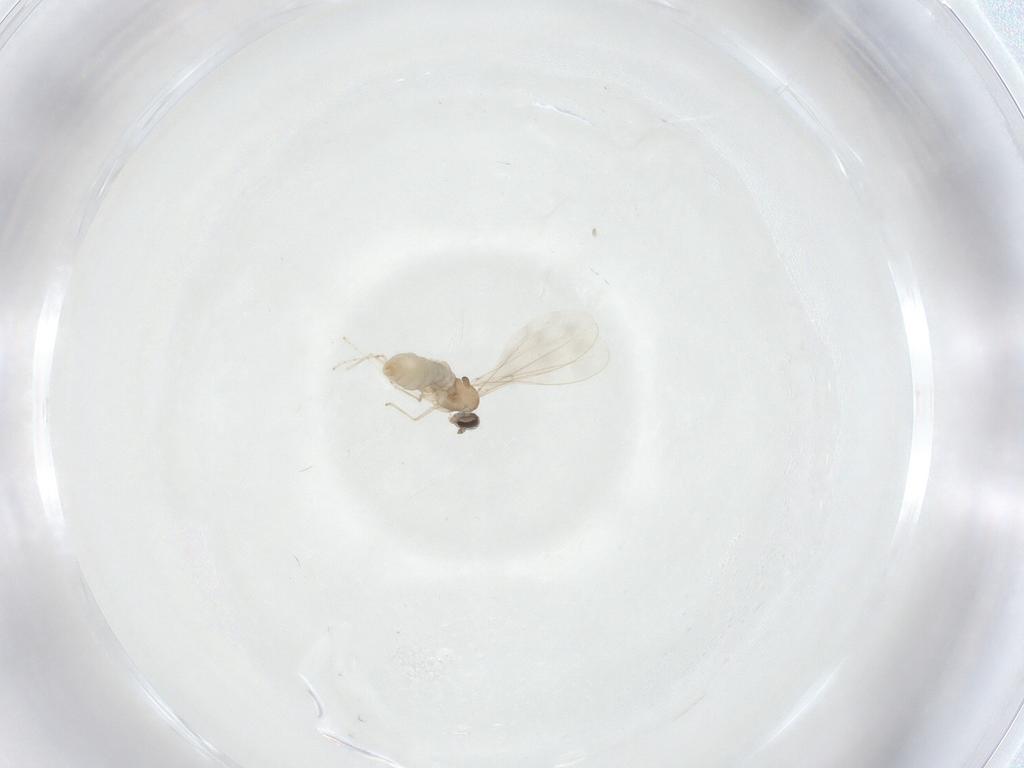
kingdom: Animalia
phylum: Arthropoda
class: Insecta
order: Diptera
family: Cecidomyiidae
